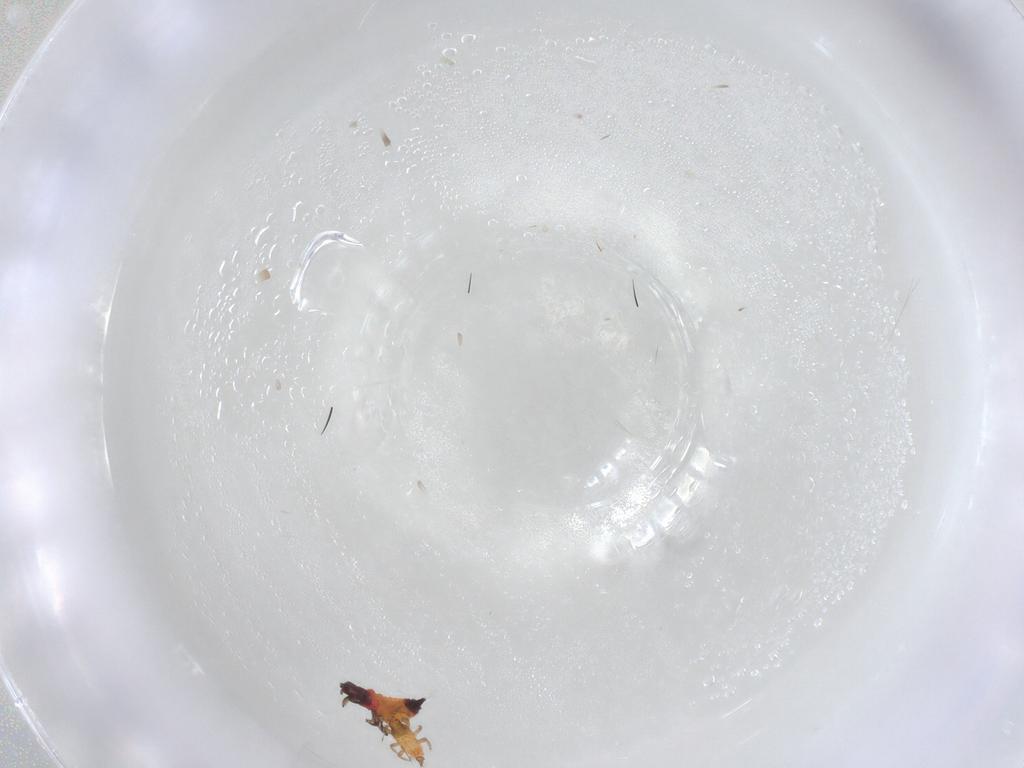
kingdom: Animalia
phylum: Arthropoda
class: Insecta
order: Thysanoptera
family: Phlaeothripidae
